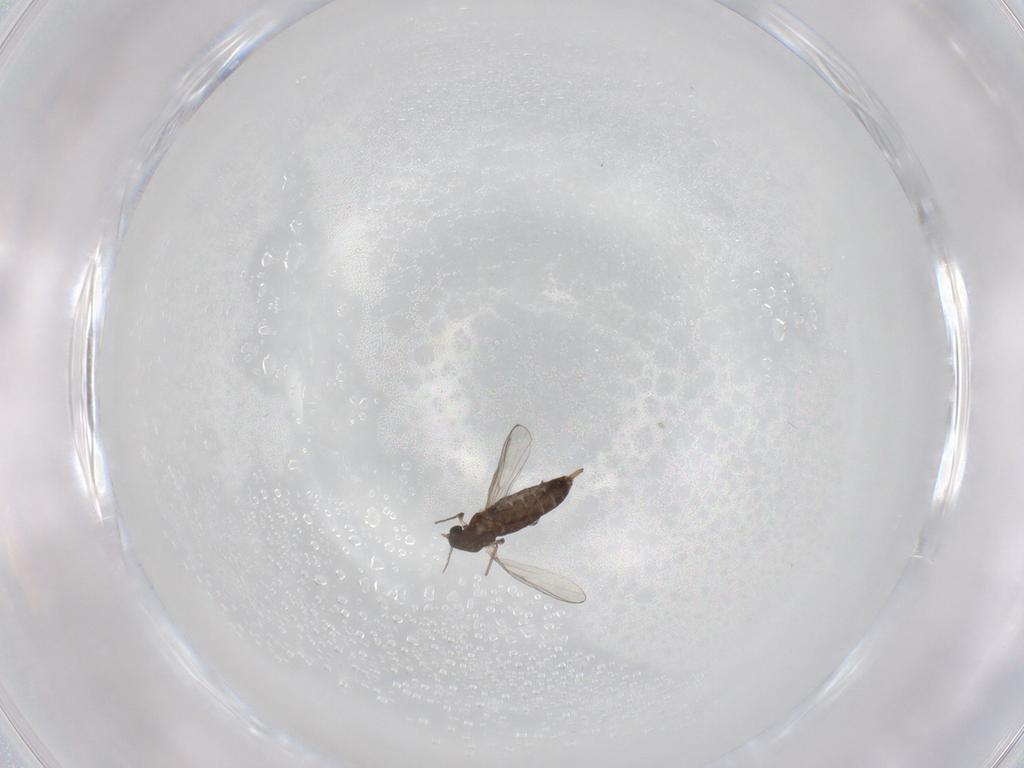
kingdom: Animalia
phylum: Arthropoda
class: Insecta
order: Diptera
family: Chironomidae
